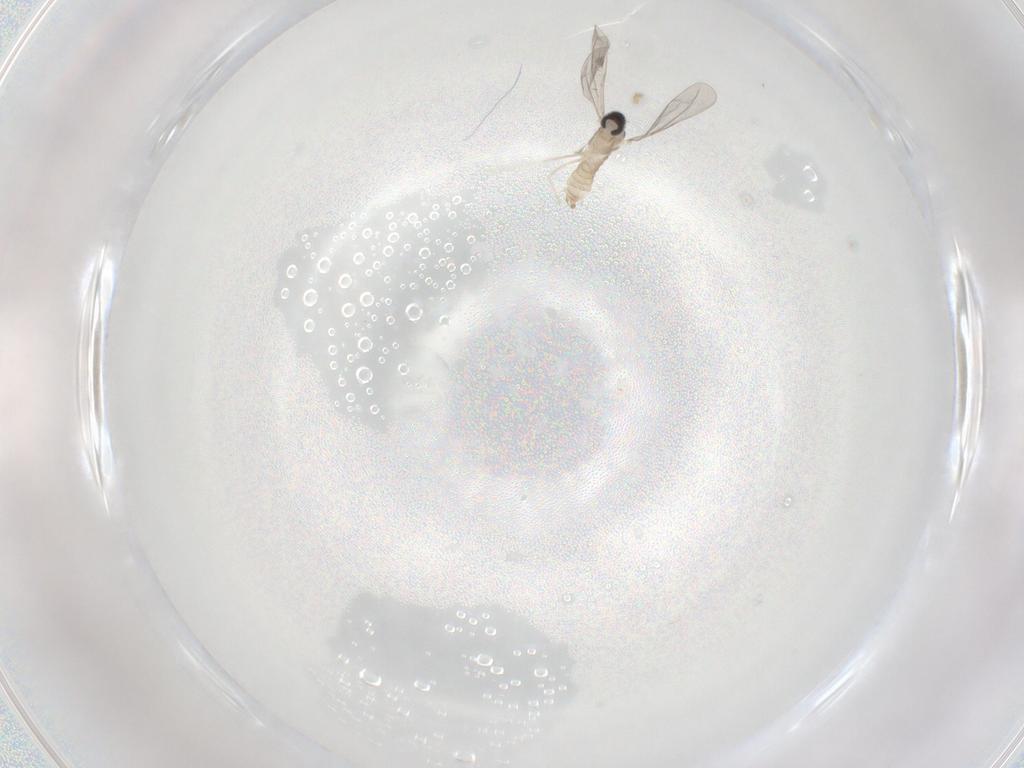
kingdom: Animalia
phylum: Arthropoda
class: Insecta
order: Diptera
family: Cecidomyiidae
